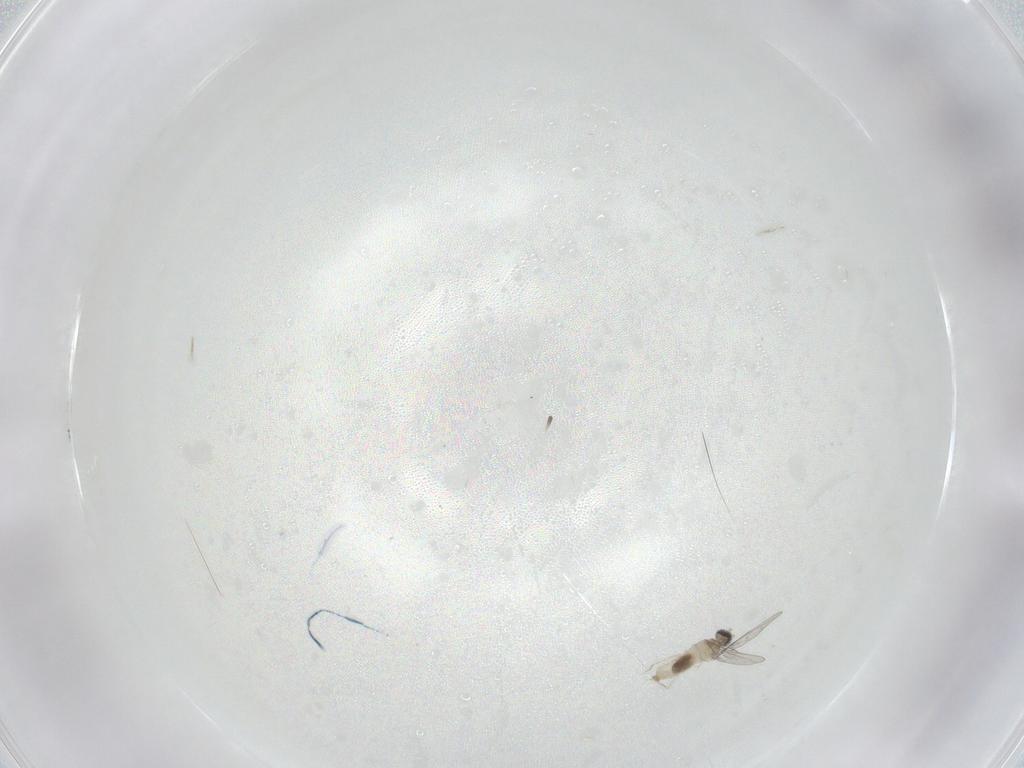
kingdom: Animalia
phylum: Arthropoda
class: Insecta
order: Diptera
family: Cecidomyiidae
